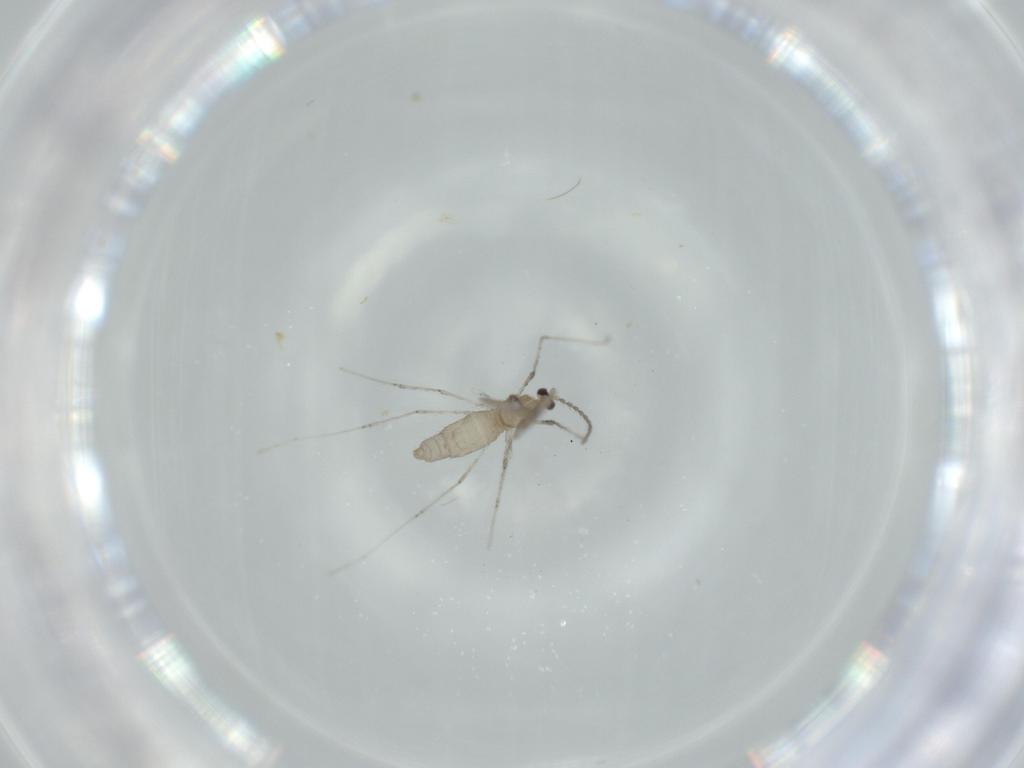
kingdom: Animalia
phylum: Arthropoda
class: Insecta
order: Diptera
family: Cecidomyiidae
